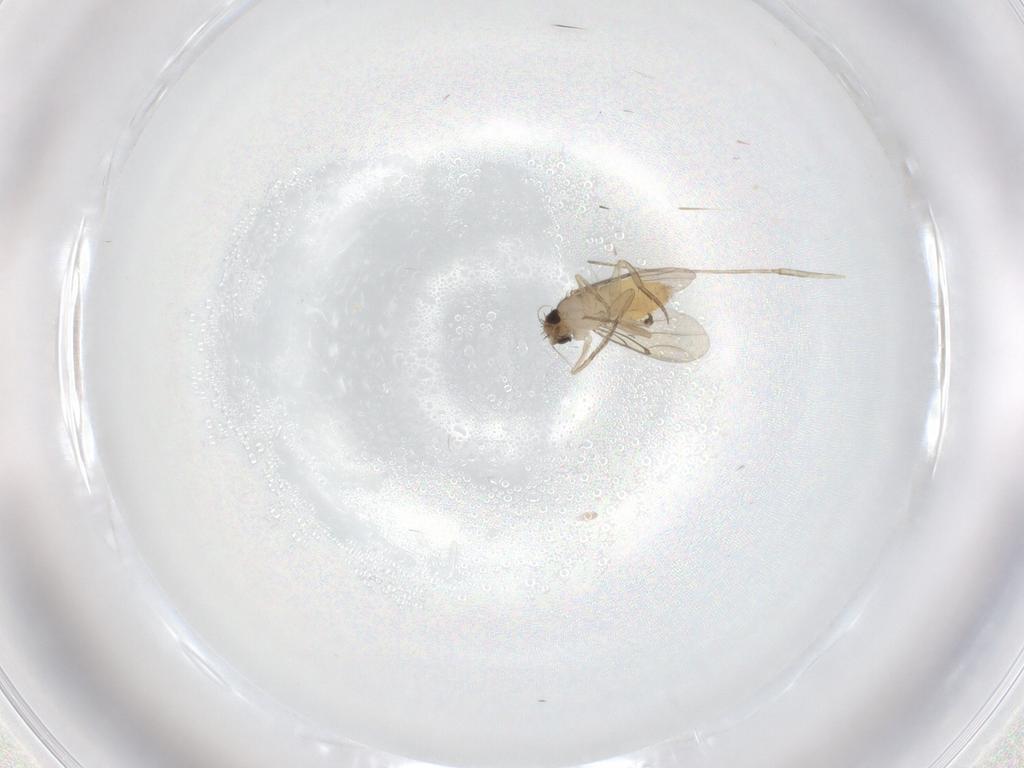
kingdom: Animalia
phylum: Arthropoda
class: Insecta
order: Diptera
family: Cecidomyiidae
